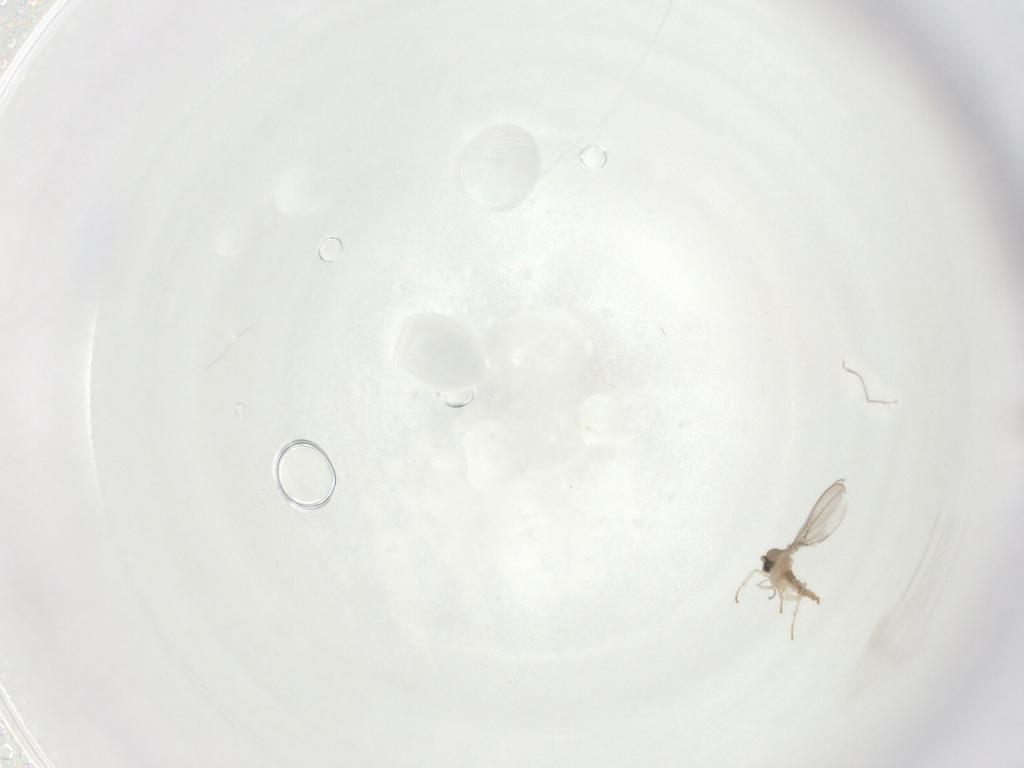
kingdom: Animalia
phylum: Arthropoda
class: Insecta
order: Diptera
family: Cecidomyiidae
